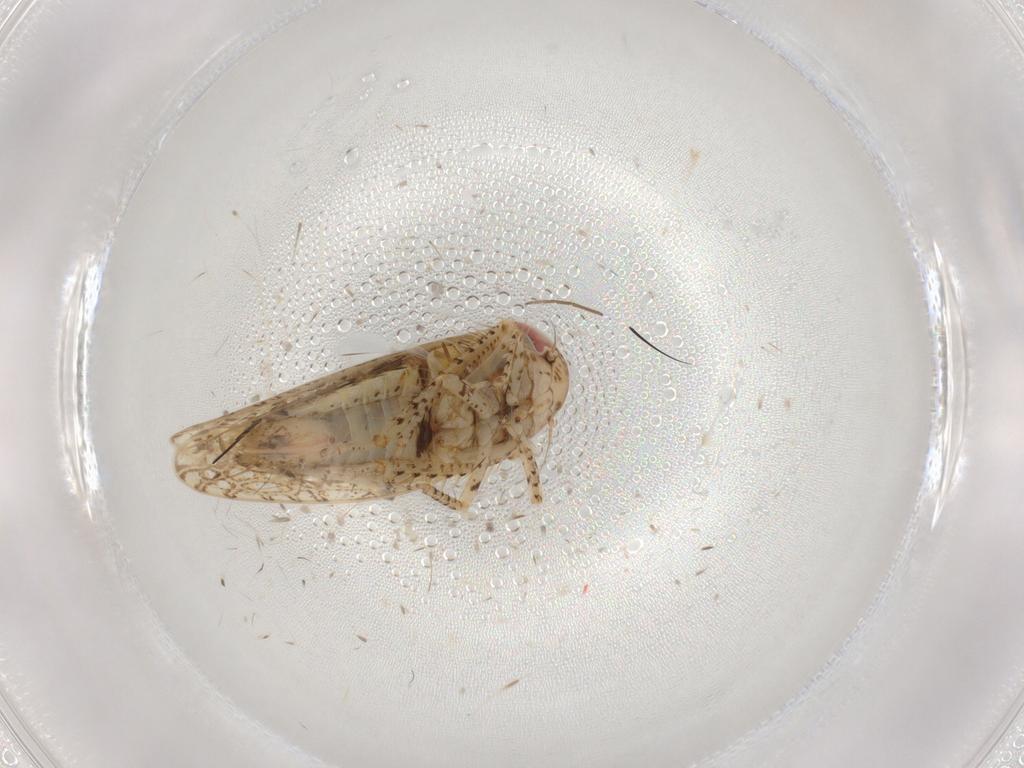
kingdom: Animalia
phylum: Arthropoda
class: Insecta
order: Hemiptera
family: Cicadellidae
